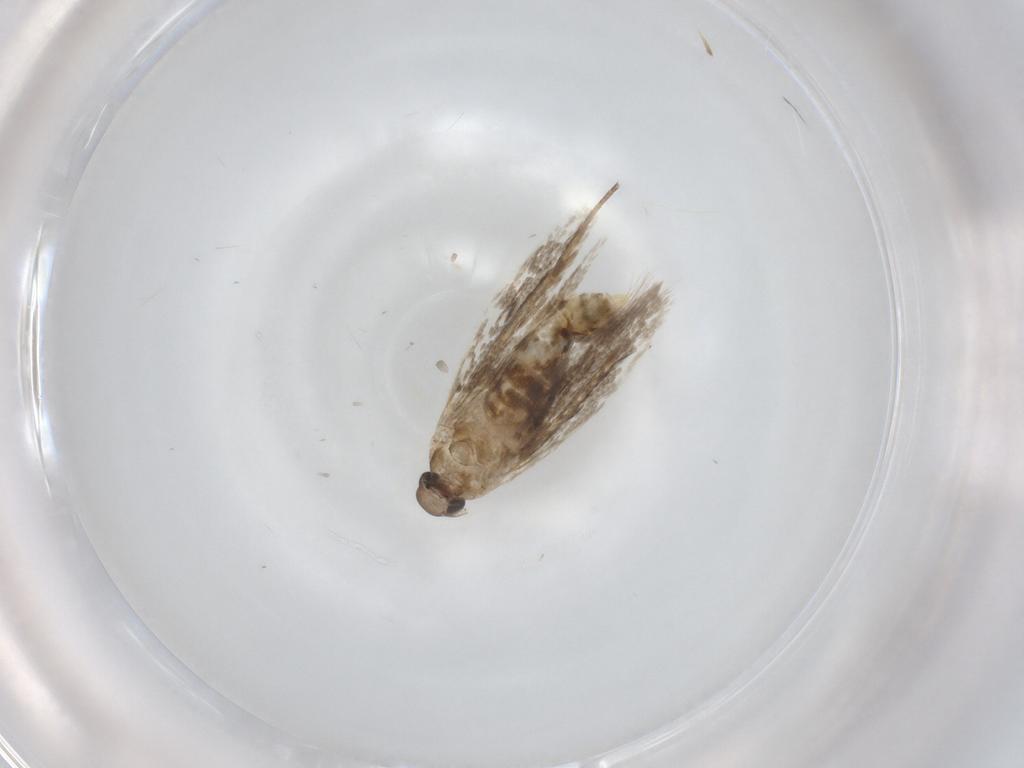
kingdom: Animalia
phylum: Arthropoda
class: Insecta
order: Lepidoptera
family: Cosmopterigidae
